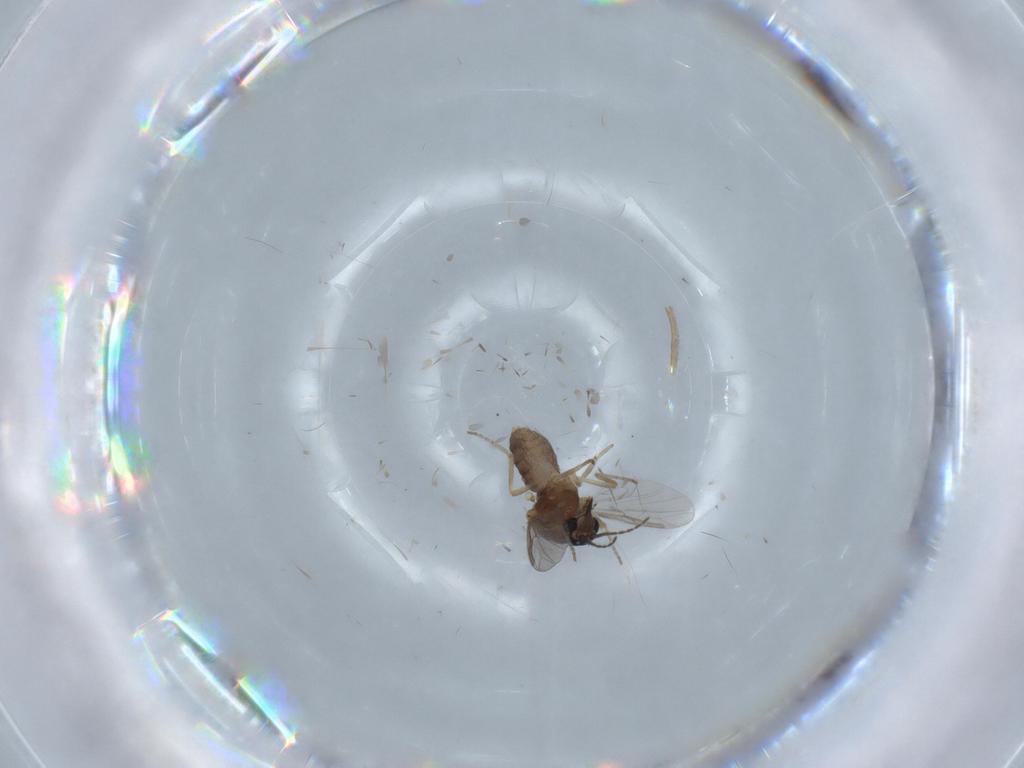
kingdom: Animalia
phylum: Arthropoda
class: Insecta
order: Diptera
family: Ceratopogonidae
